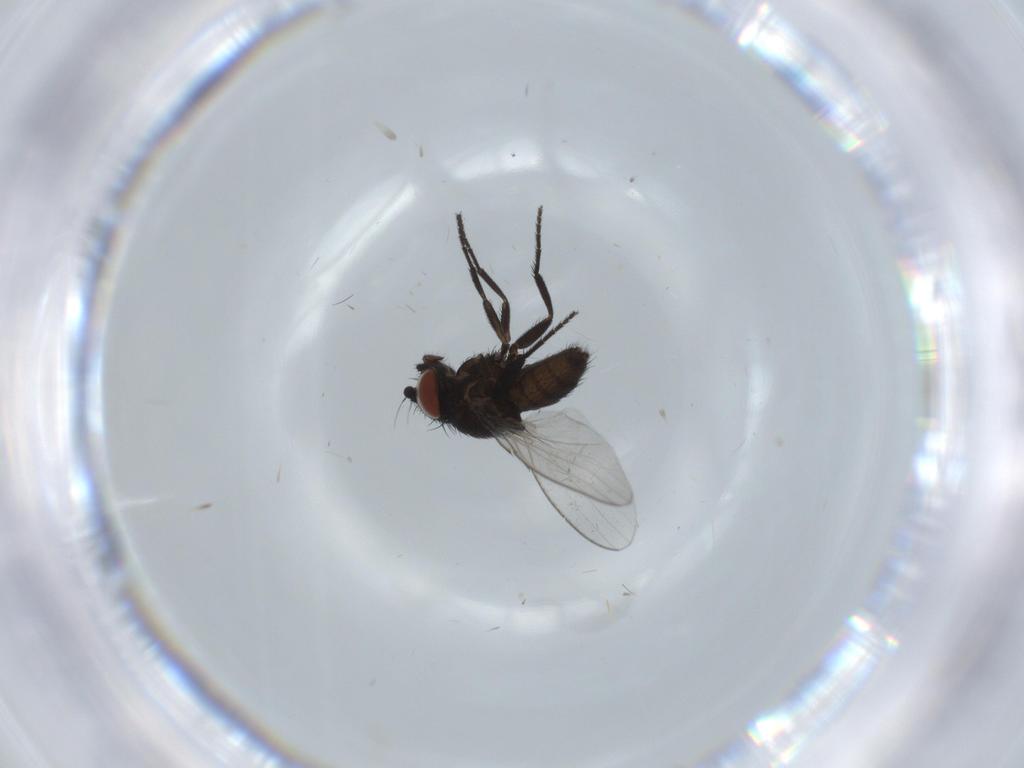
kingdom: Animalia
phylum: Arthropoda
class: Insecta
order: Diptera
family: Milichiidae
